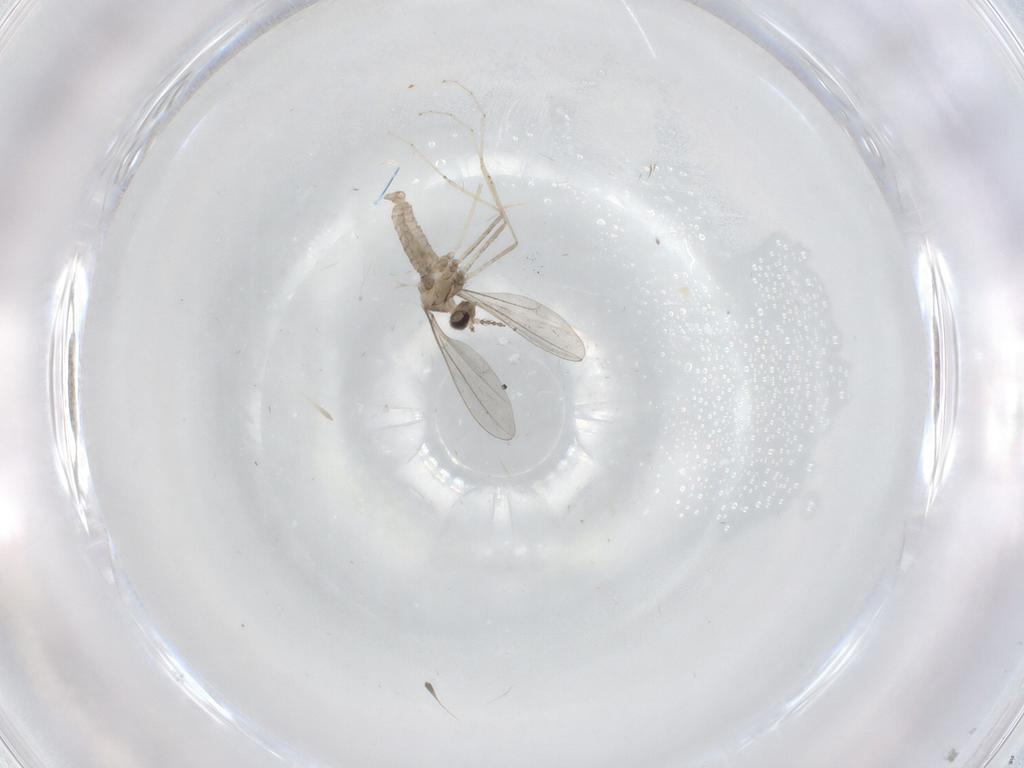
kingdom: Animalia
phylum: Arthropoda
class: Insecta
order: Diptera
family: Cecidomyiidae
